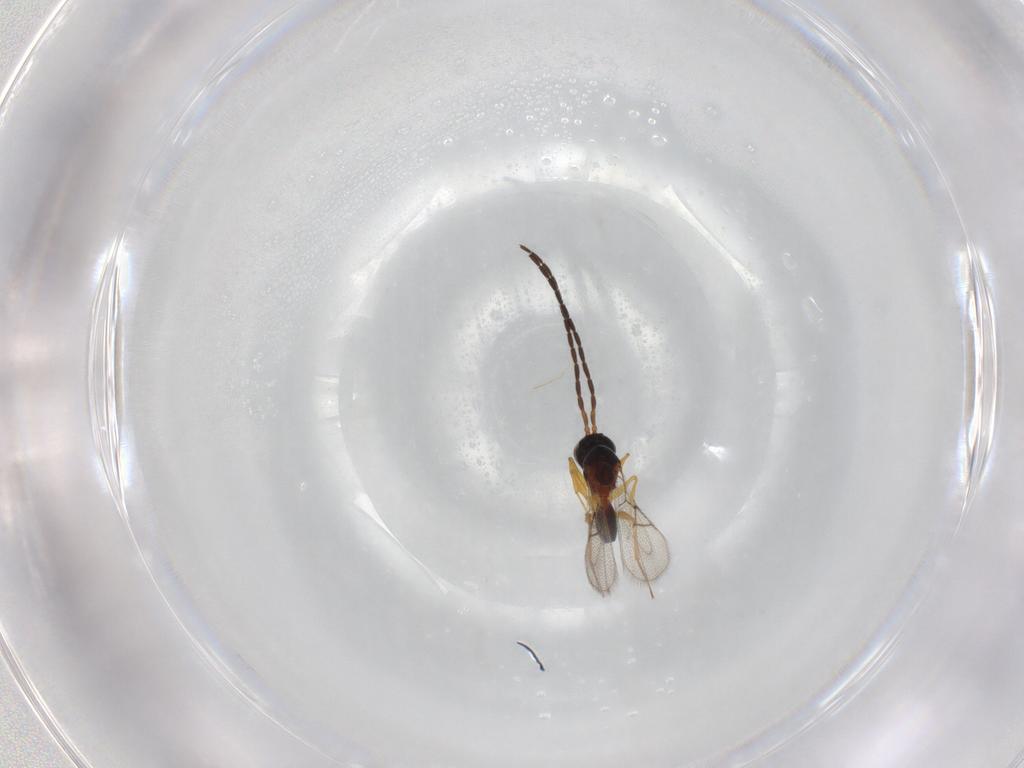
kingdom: Animalia
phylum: Arthropoda
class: Insecta
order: Hymenoptera
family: Figitidae
